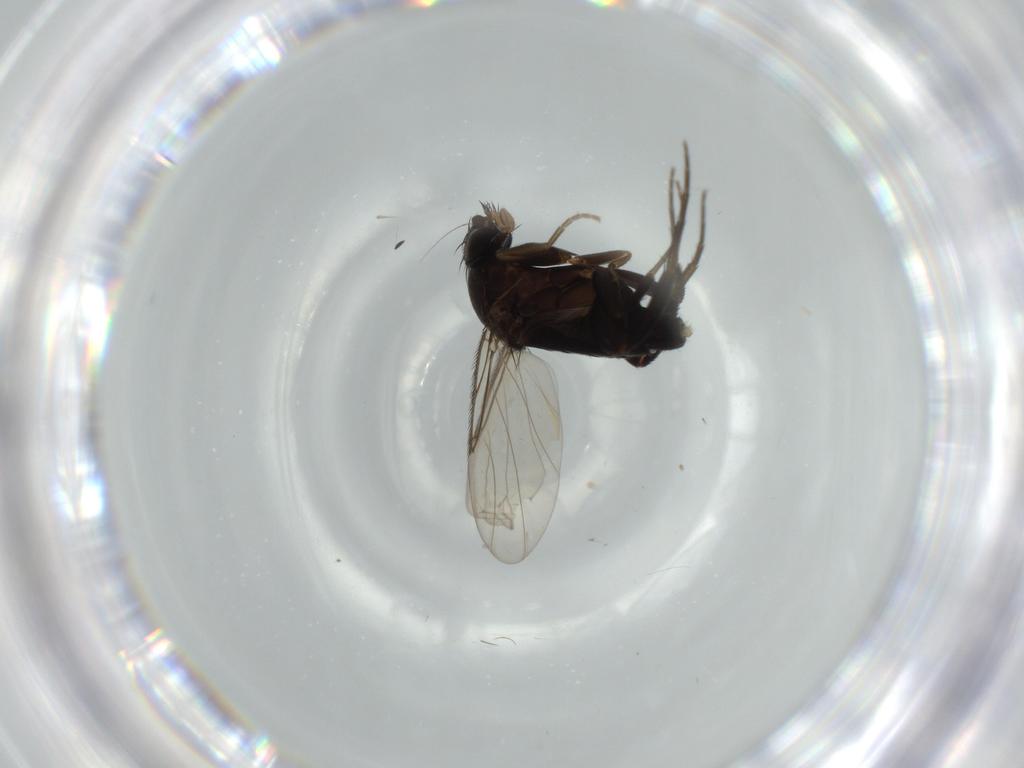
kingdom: Animalia
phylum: Arthropoda
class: Insecta
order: Diptera
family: Phoridae
